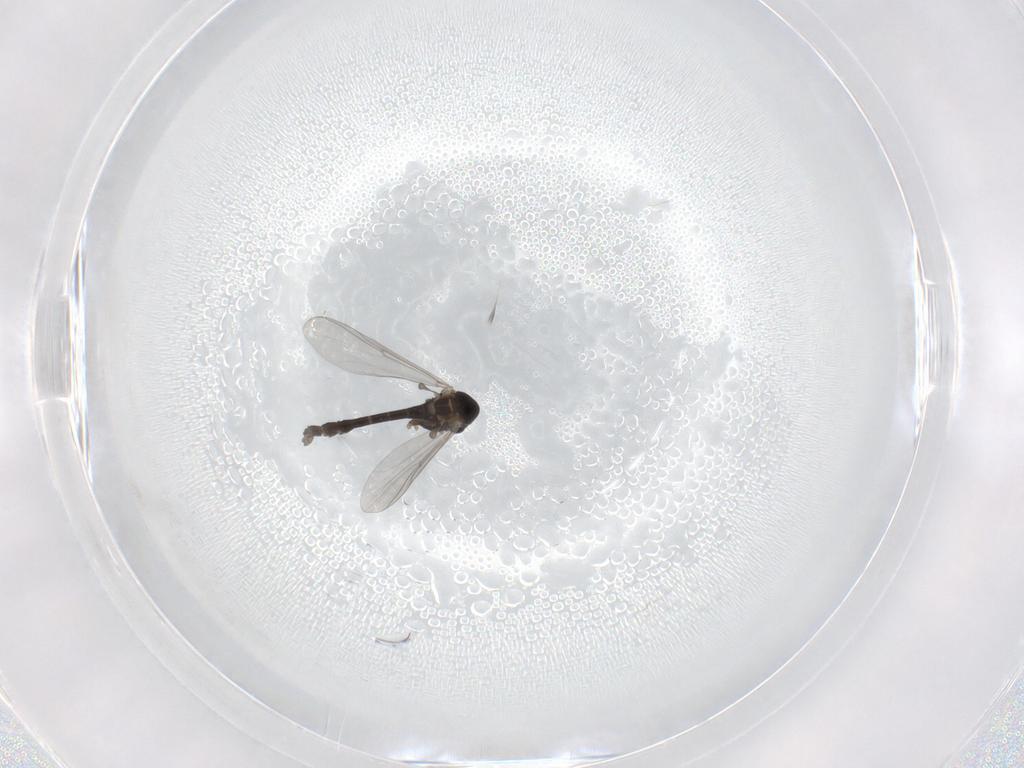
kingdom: Animalia
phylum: Arthropoda
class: Insecta
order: Diptera
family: Chironomidae
